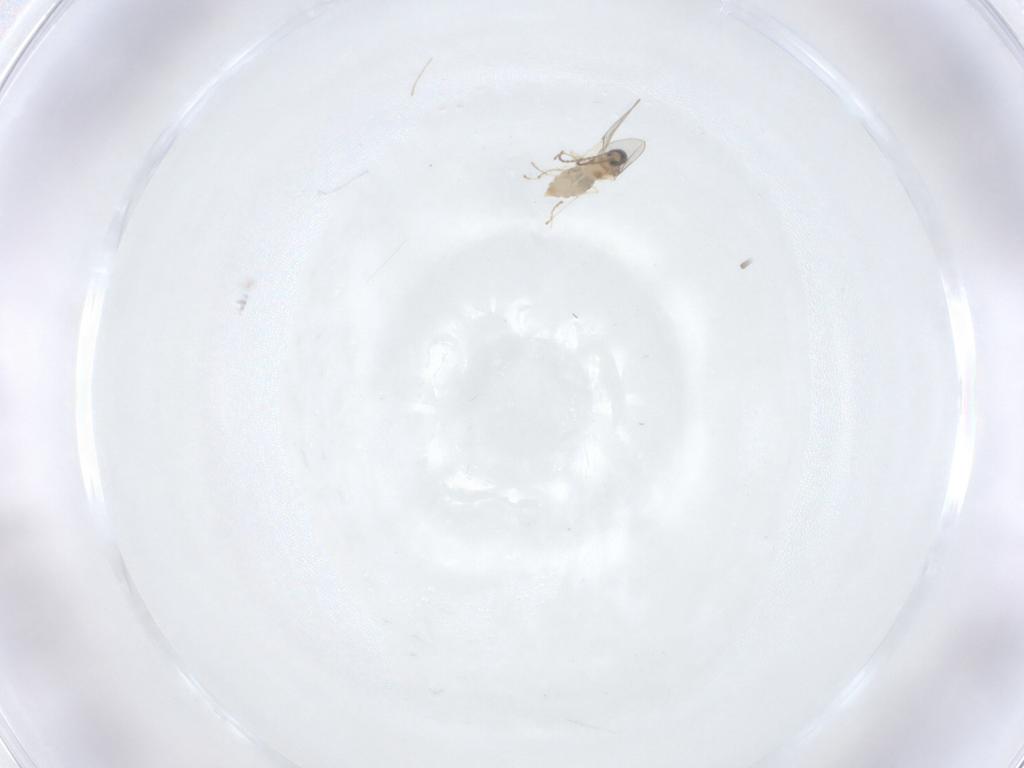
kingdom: Animalia
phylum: Arthropoda
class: Insecta
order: Diptera
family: Cecidomyiidae
